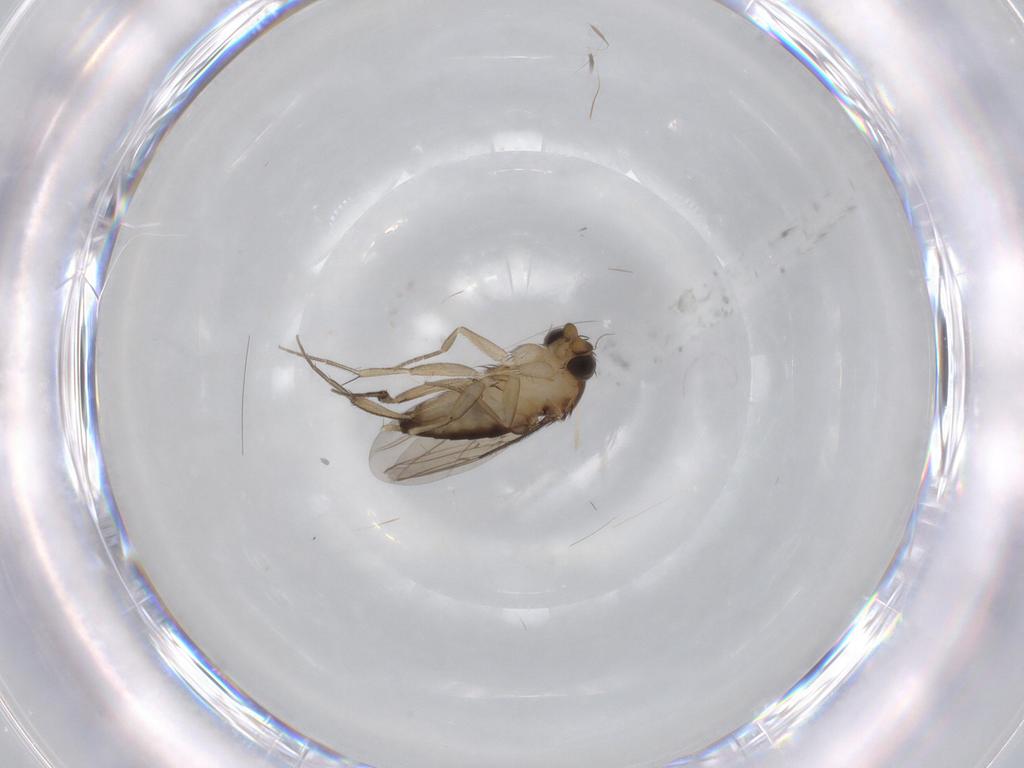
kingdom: Animalia
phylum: Arthropoda
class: Insecta
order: Diptera
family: Phoridae
